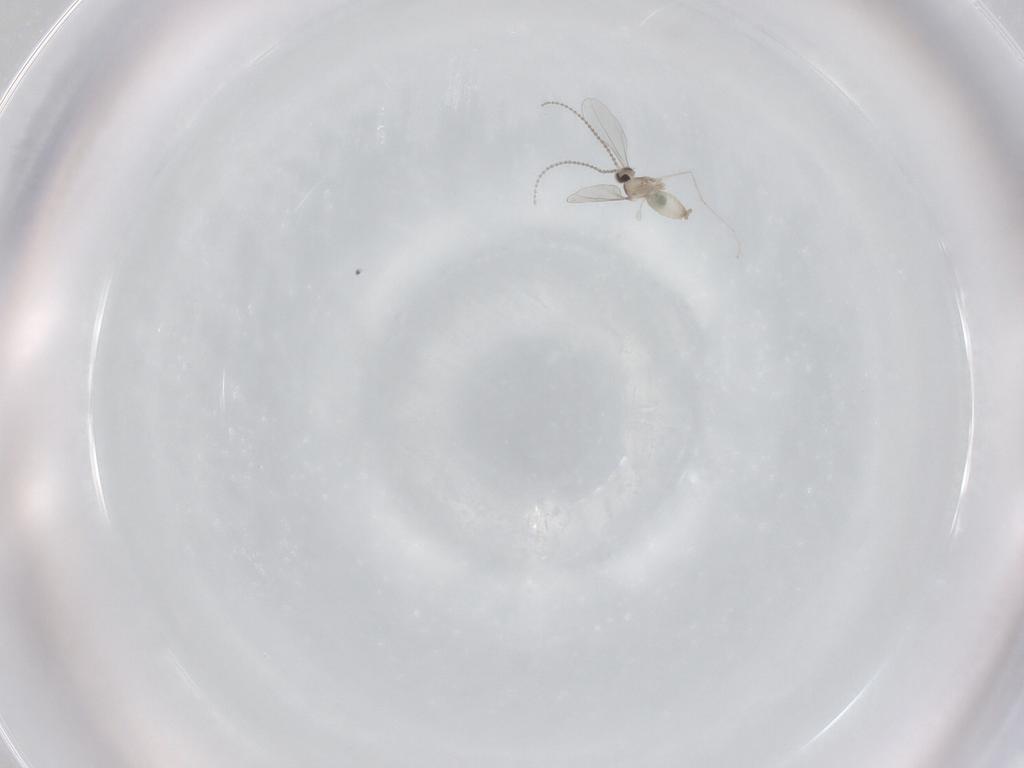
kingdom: Animalia
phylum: Arthropoda
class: Insecta
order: Diptera
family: Cecidomyiidae
